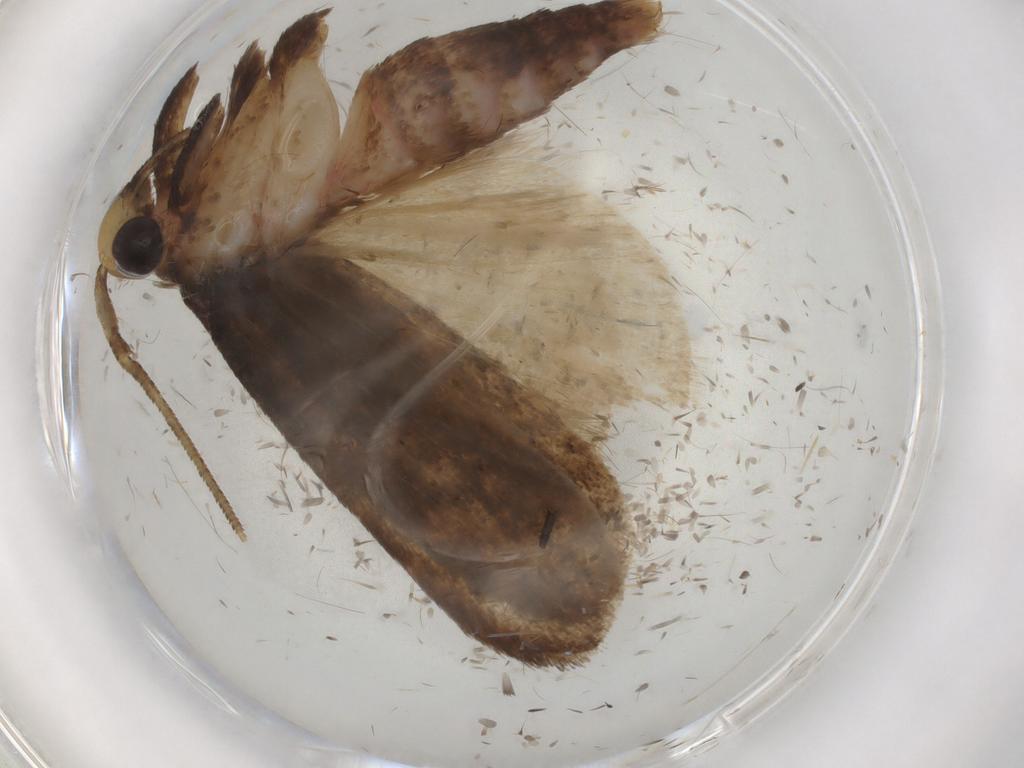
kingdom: Animalia
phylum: Arthropoda
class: Insecta
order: Lepidoptera
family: Autostichidae
